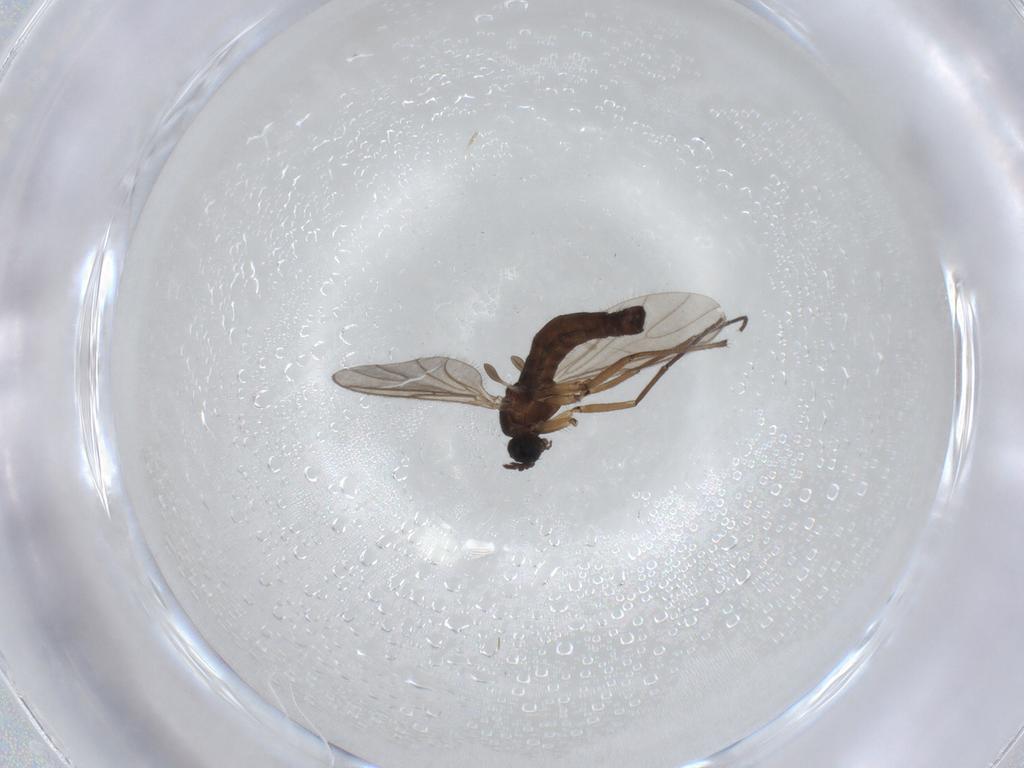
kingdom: Animalia
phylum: Arthropoda
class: Insecta
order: Diptera
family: Sciaridae
